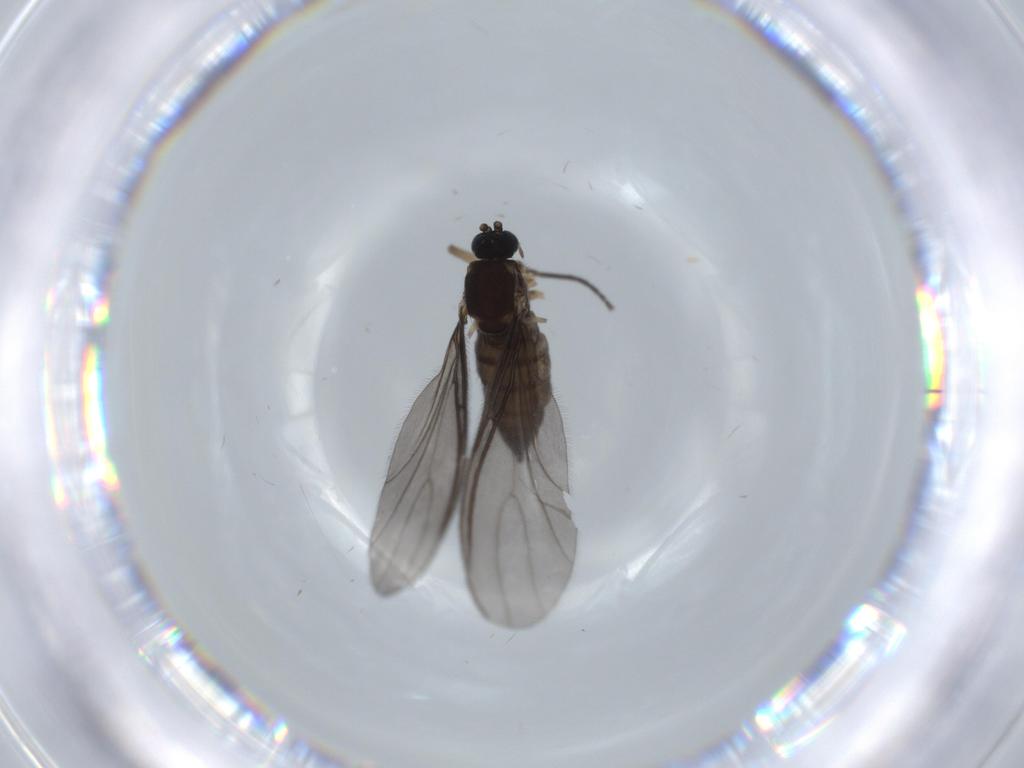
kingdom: Animalia
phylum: Arthropoda
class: Insecta
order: Diptera
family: Sciaridae
